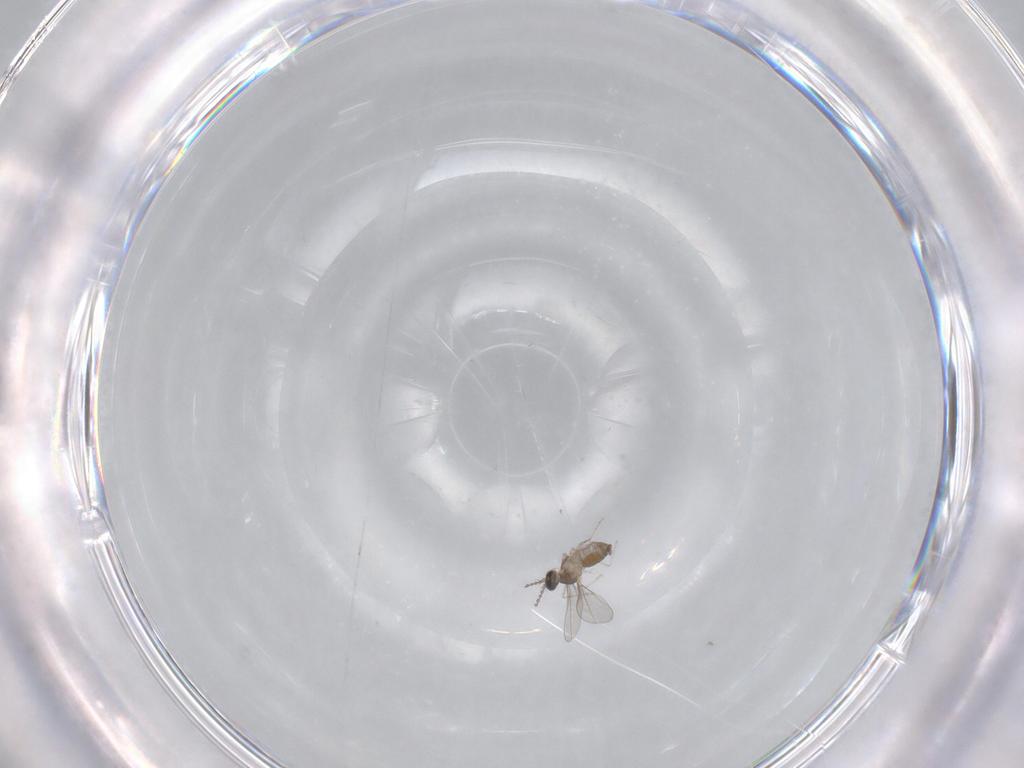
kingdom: Animalia
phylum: Arthropoda
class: Insecta
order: Diptera
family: Cecidomyiidae
